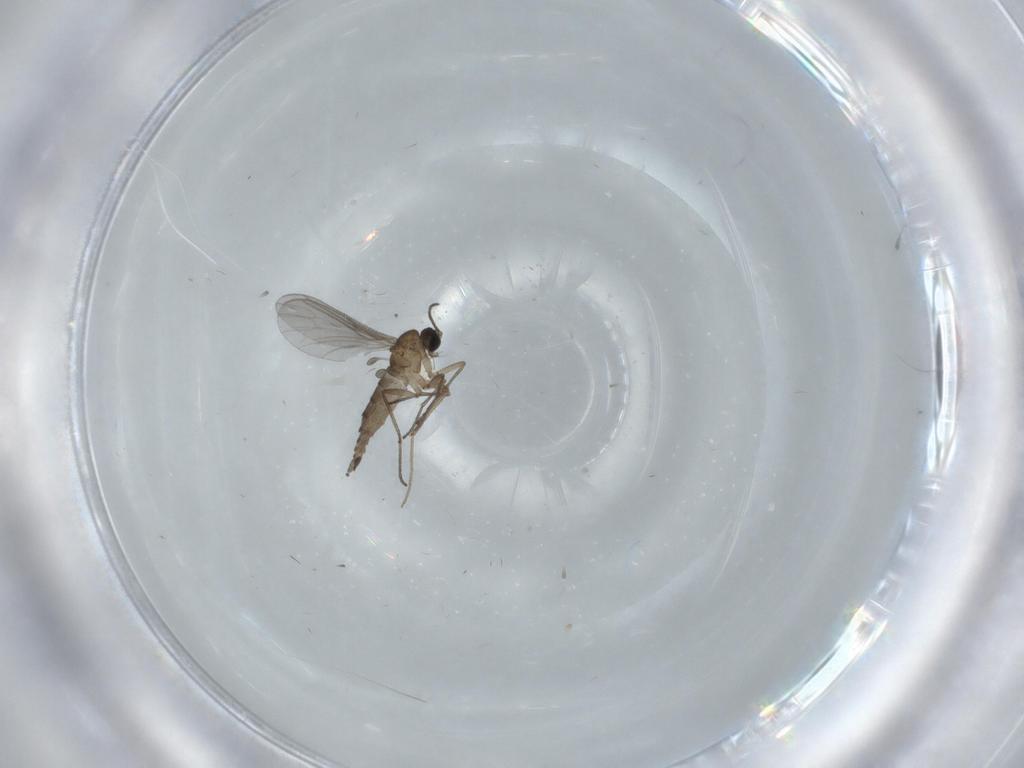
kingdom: Animalia
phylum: Arthropoda
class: Insecta
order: Diptera
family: Sciaridae
